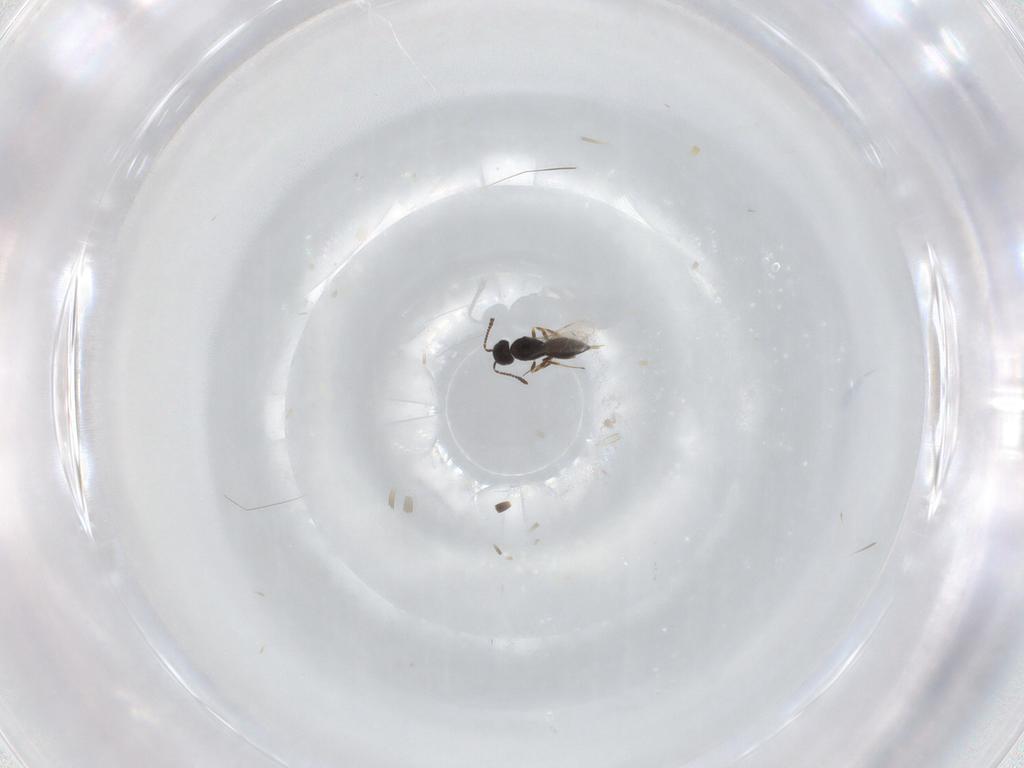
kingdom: Animalia
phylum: Arthropoda
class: Insecta
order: Hymenoptera
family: Scelionidae
